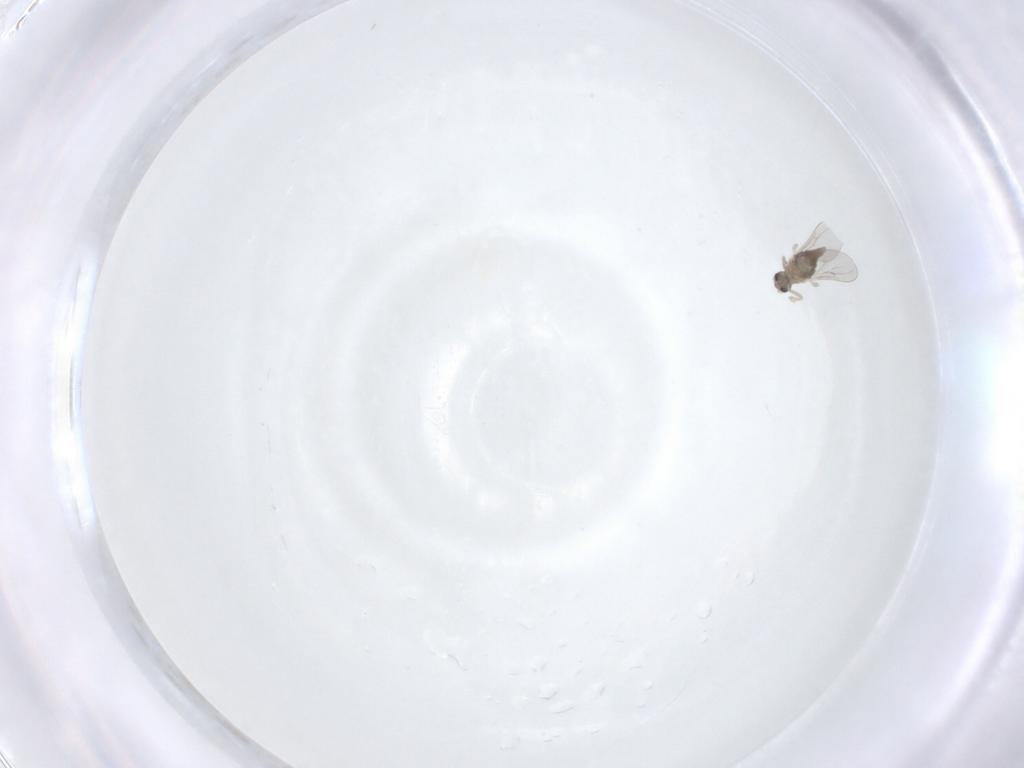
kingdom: Animalia
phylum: Arthropoda
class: Insecta
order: Diptera
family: Cecidomyiidae
